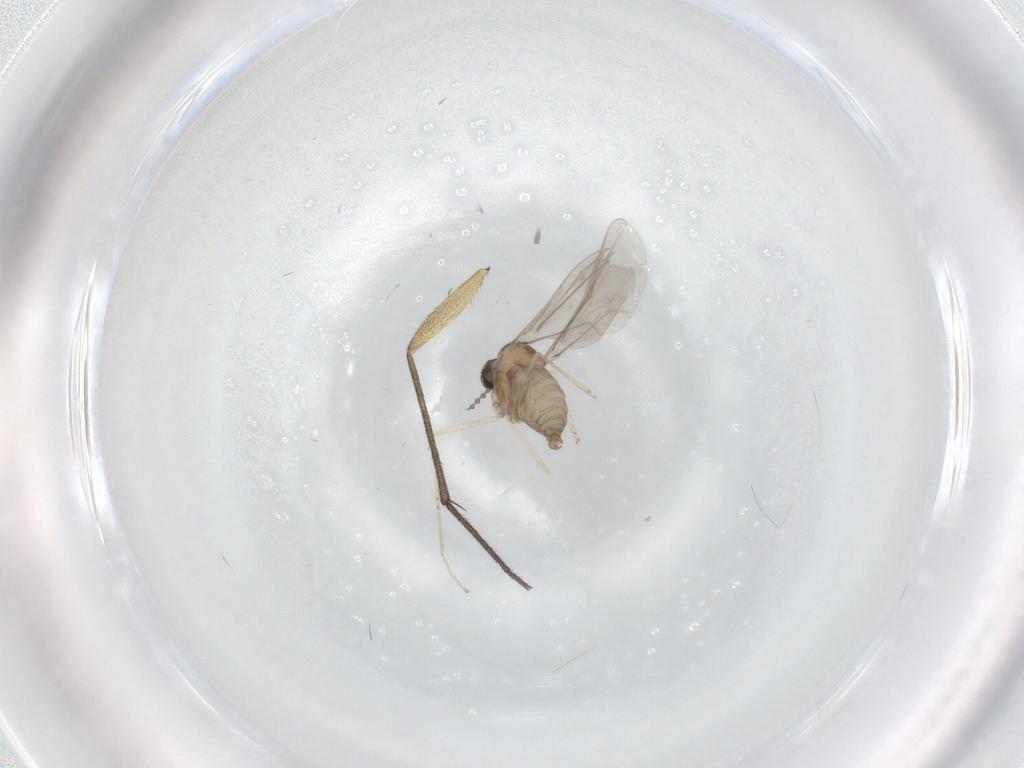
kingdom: Animalia
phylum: Arthropoda
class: Insecta
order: Diptera
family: Cecidomyiidae
